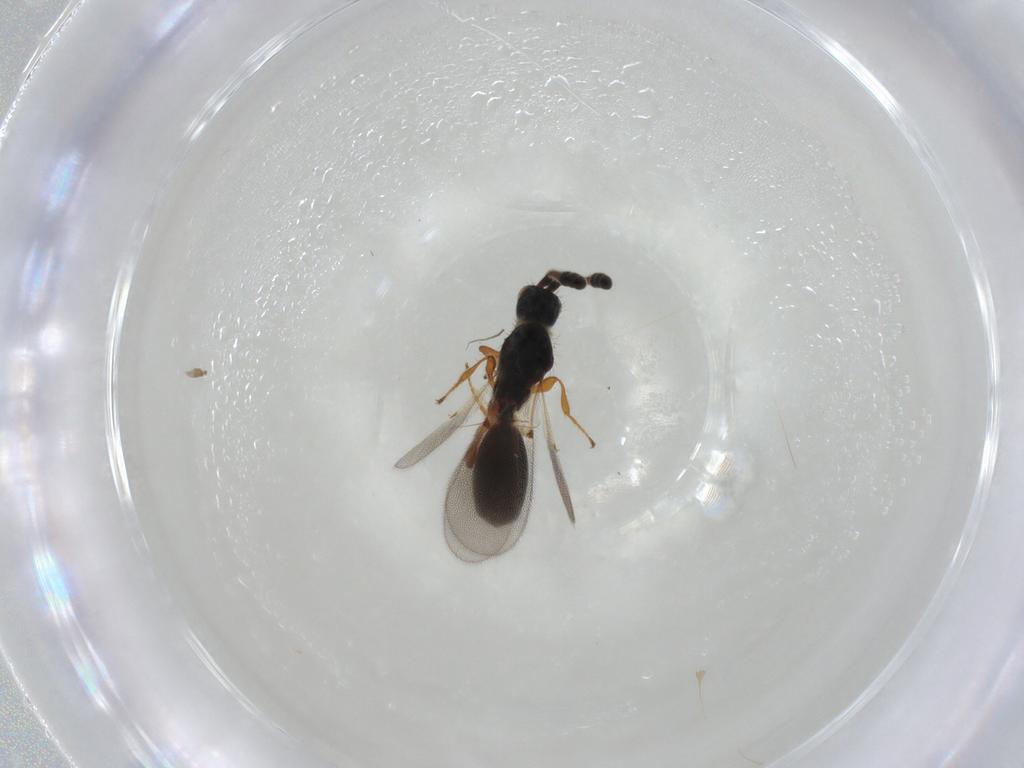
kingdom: Animalia
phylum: Arthropoda
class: Insecta
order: Hymenoptera
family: Diapriidae
